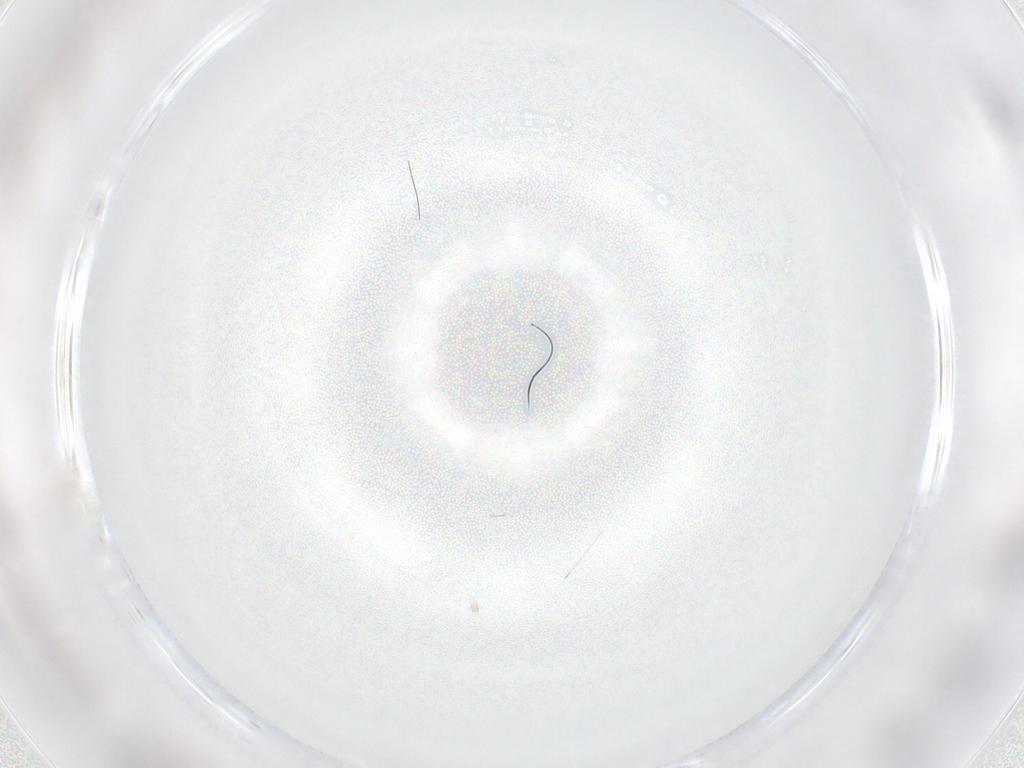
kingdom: Animalia
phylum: Arthropoda
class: Insecta
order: Hymenoptera
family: Mymaridae
